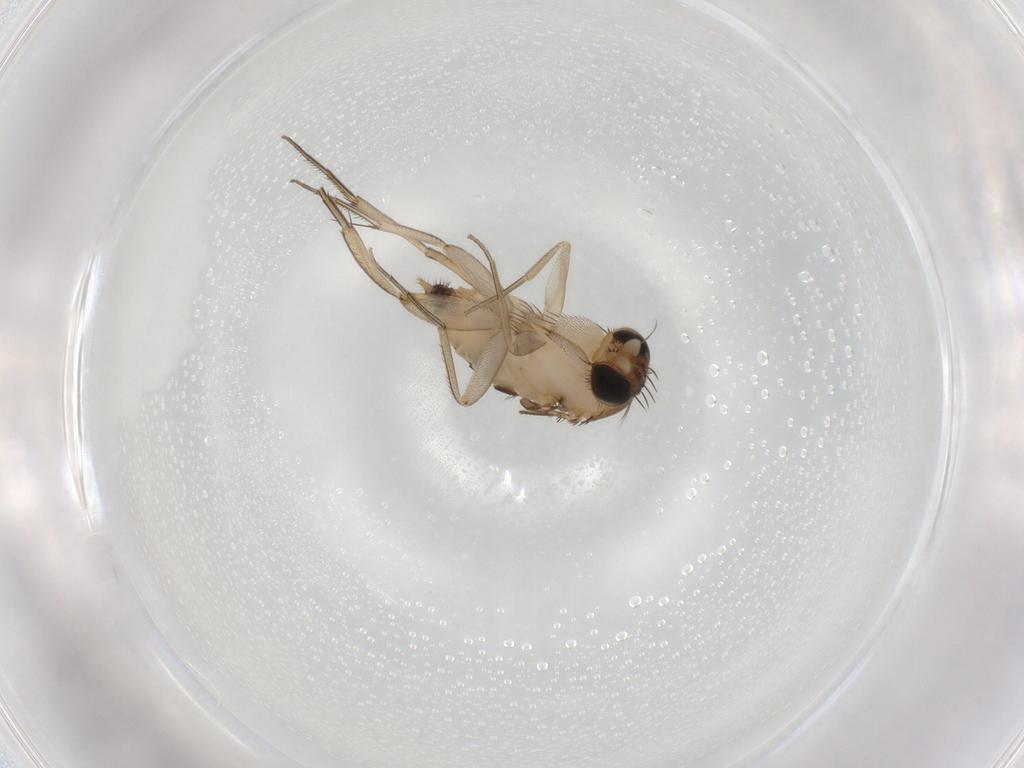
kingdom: Animalia
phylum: Arthropoda
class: Insecta
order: Diptera
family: Phoridae
